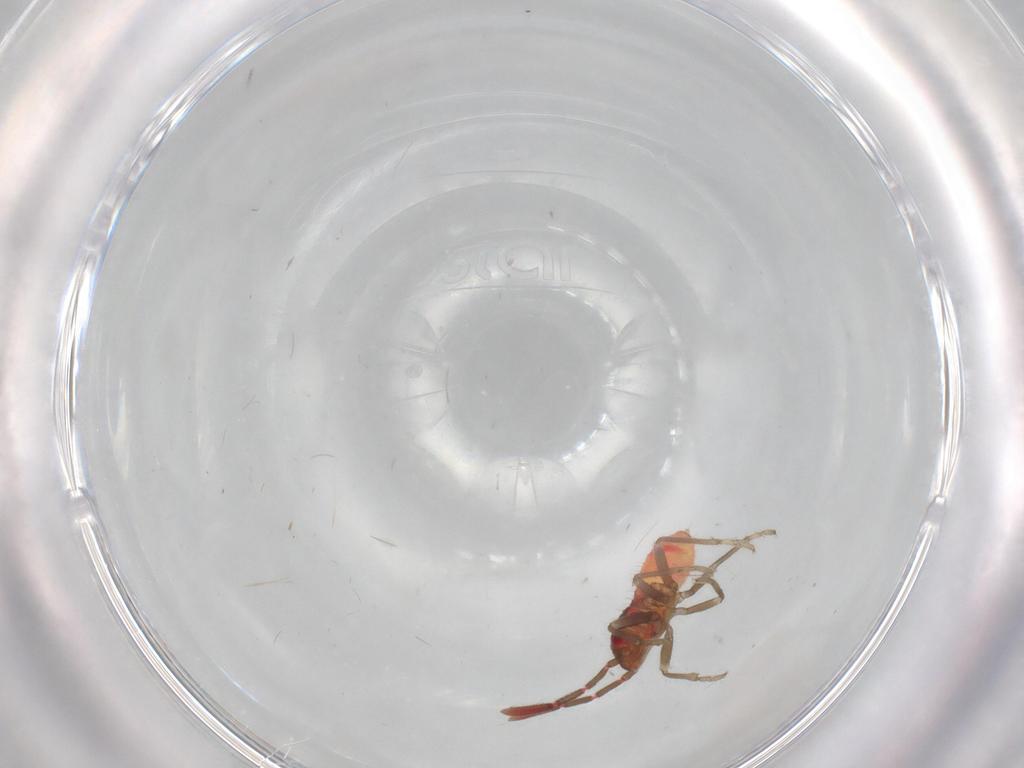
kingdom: Animalia
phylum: Arthropoda
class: Insecta
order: Hemiptera
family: Rhyparochromidae
